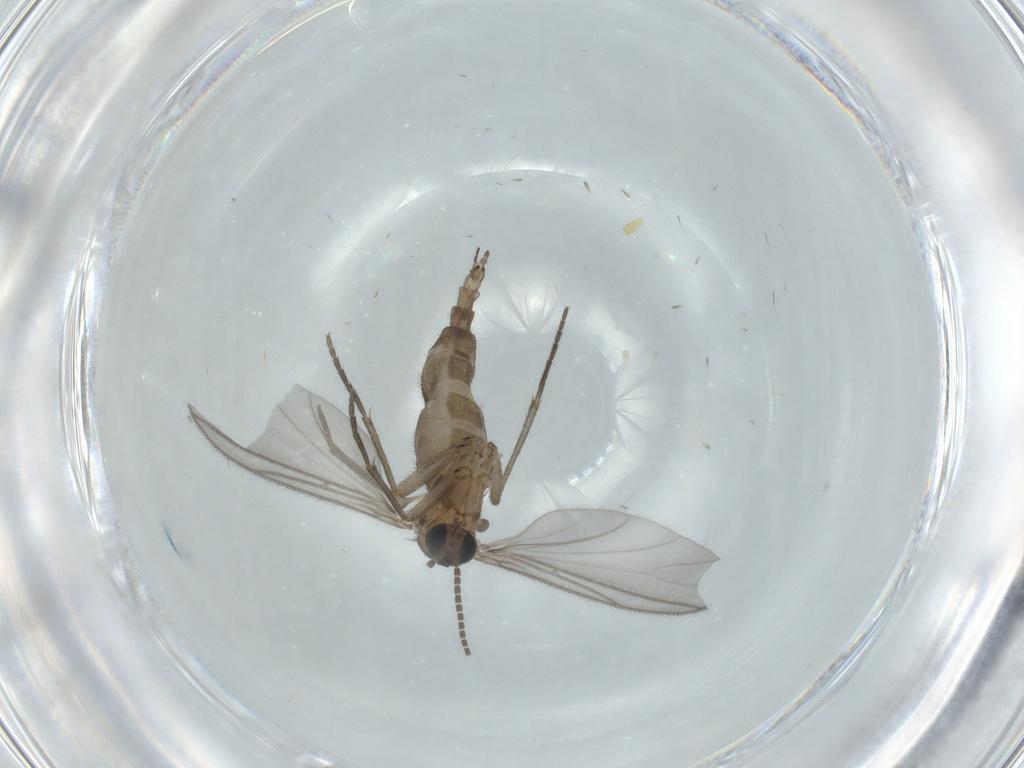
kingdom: Animalia
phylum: Arthropoda
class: Insecta
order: Diptera
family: Sciaridae
